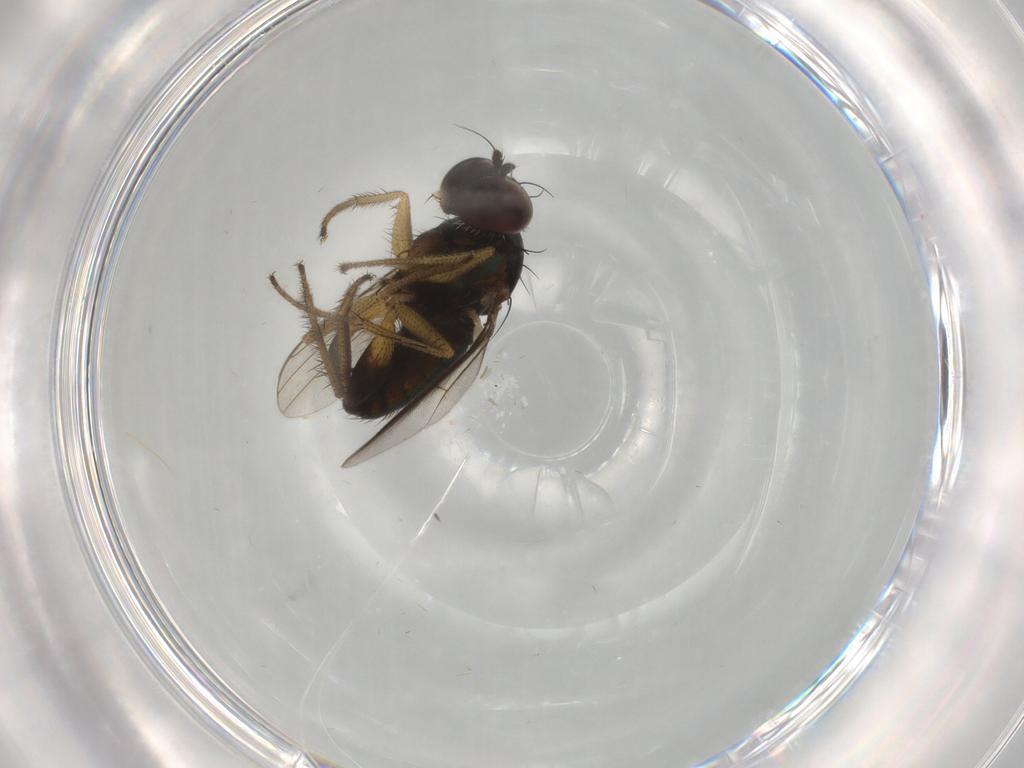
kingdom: Animalia
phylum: Arthropoda
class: Insecta
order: Diptera
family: Dolichopodidae
